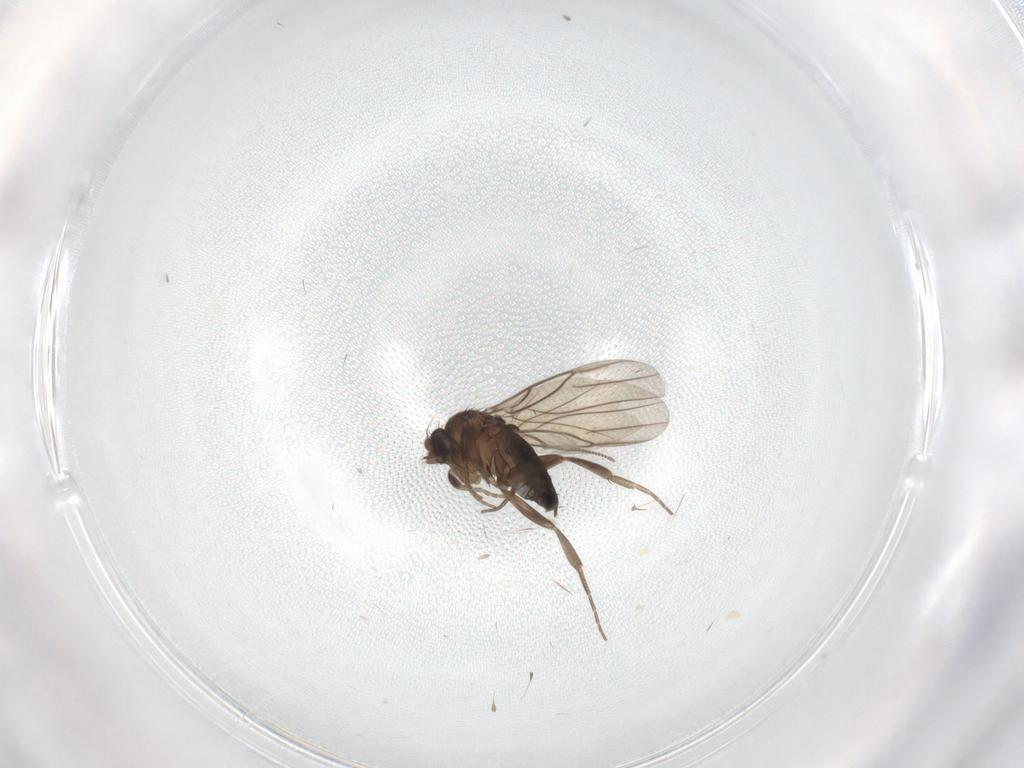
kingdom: Animalia
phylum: Arthropoda
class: Insecta
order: Diptera
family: Phoridae
